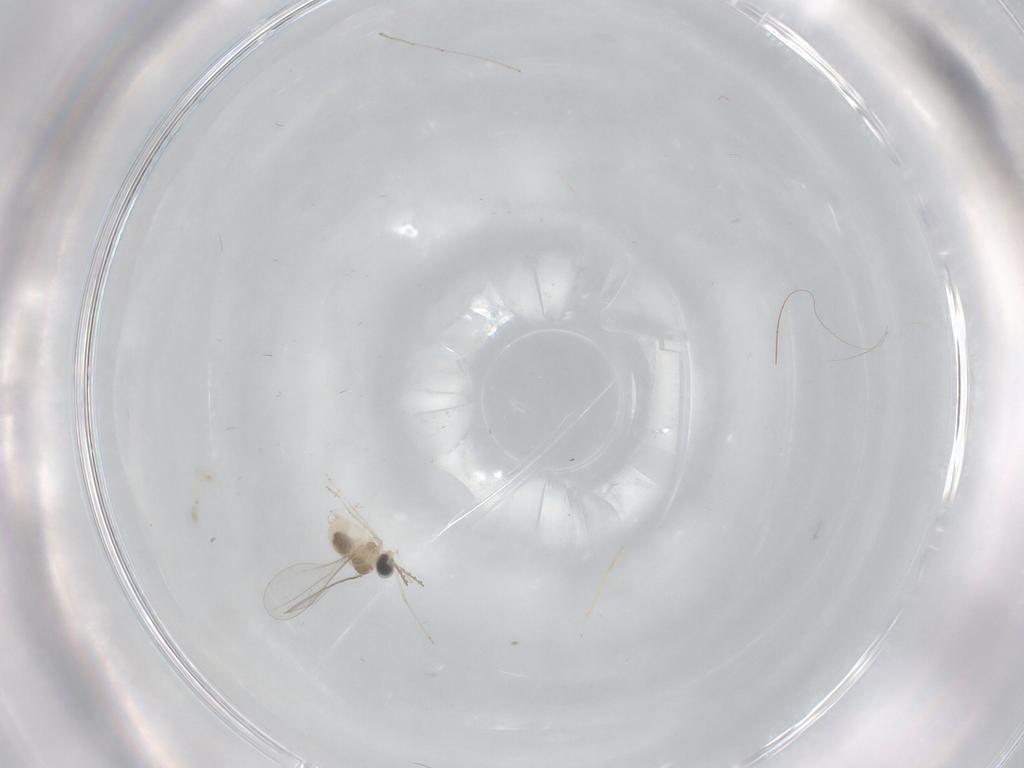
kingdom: Animalia
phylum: Arthropoda
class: Insecta
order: Diptera
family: Cecidomyiidae
